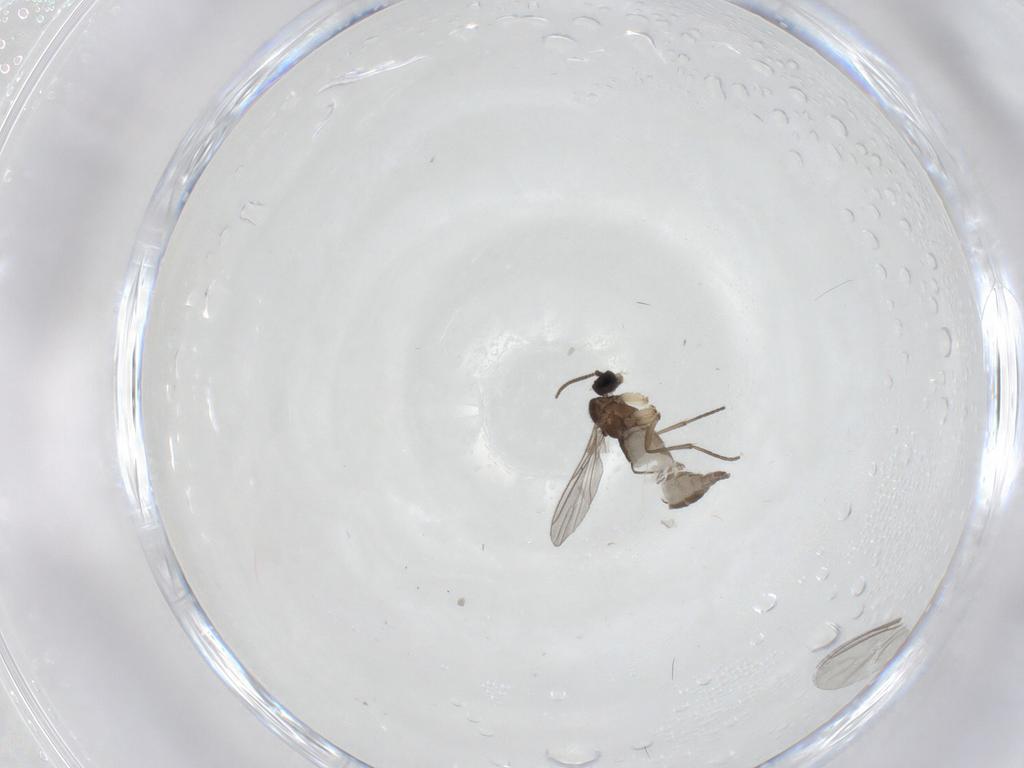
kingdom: Animalia
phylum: Arthropoda
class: Insecta
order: Diptera
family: Sciaridae
